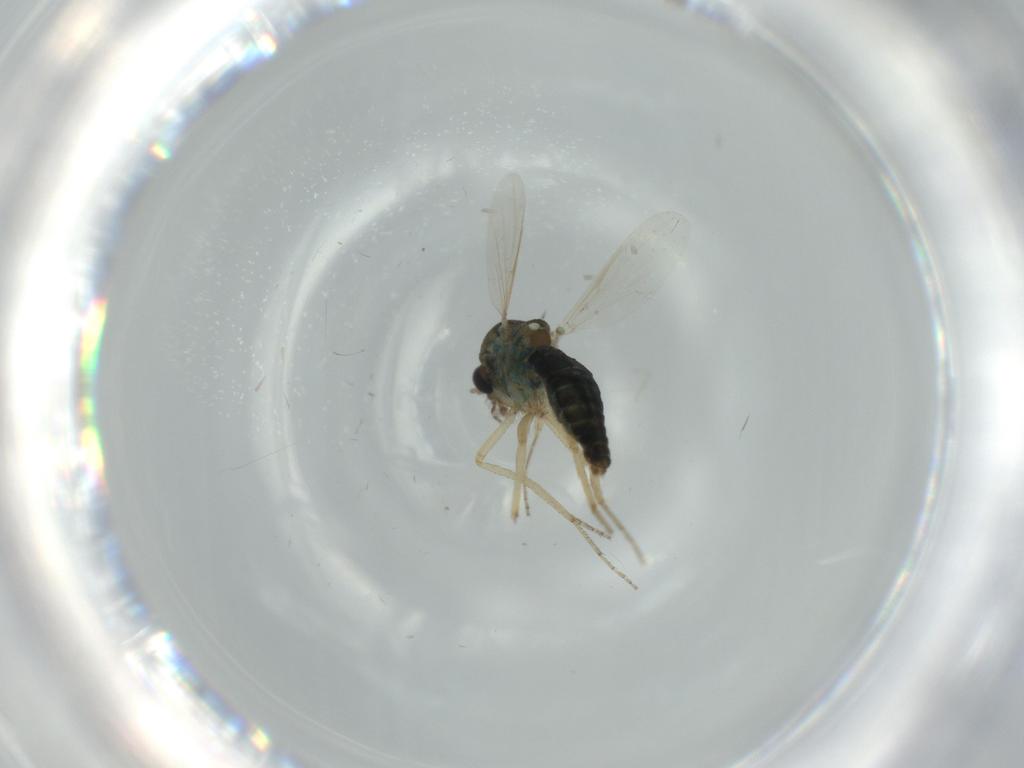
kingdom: Animalia
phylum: Arthropoda
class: Insecta
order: Diptera
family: Ceratopogonidae
